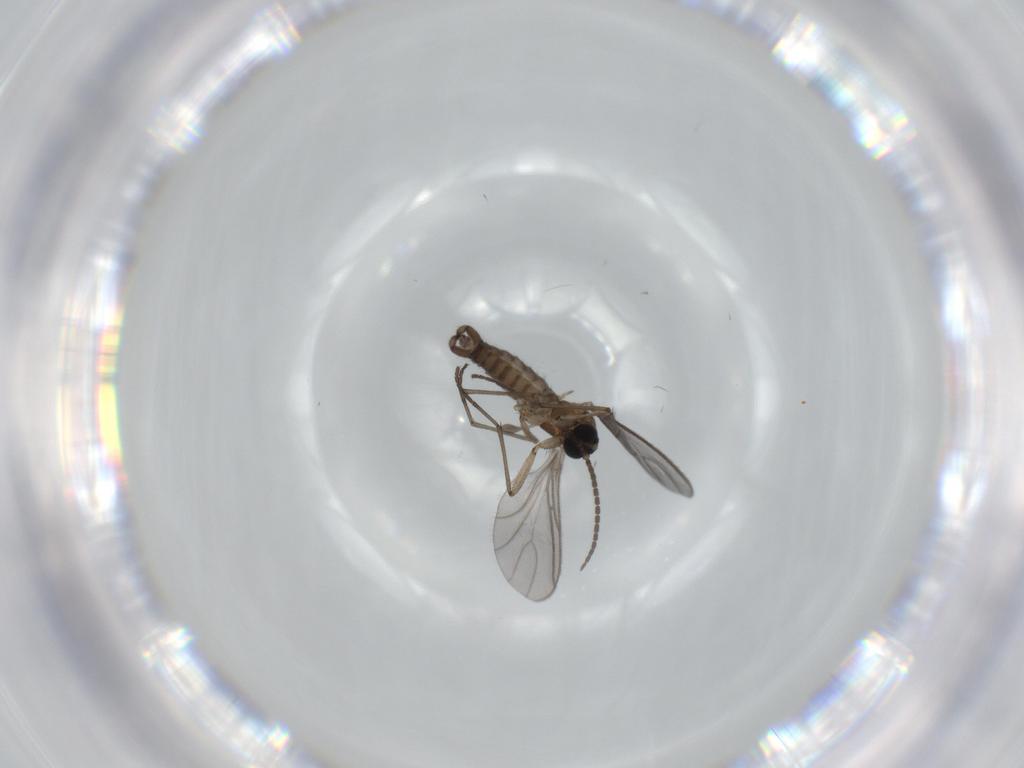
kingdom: Animalia
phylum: Arthropoda
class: Insecta
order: Diptera
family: Sciaridae
